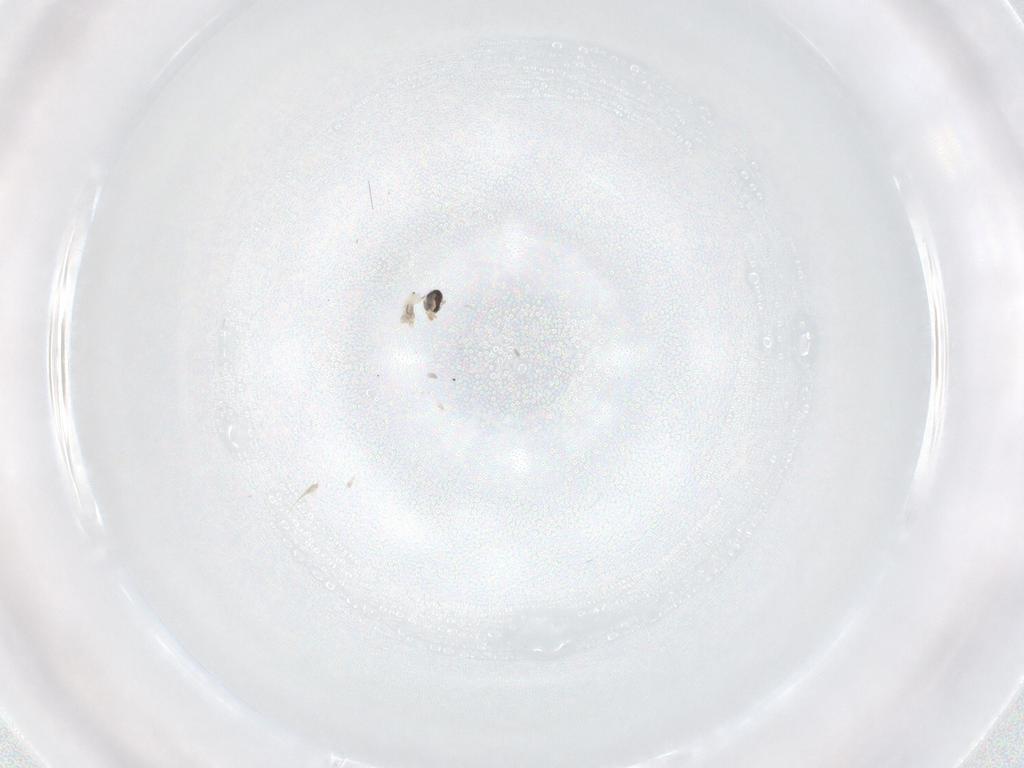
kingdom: Animalia
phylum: Arthropoda
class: Insecta
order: Diptera
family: Cecidomyiidae
